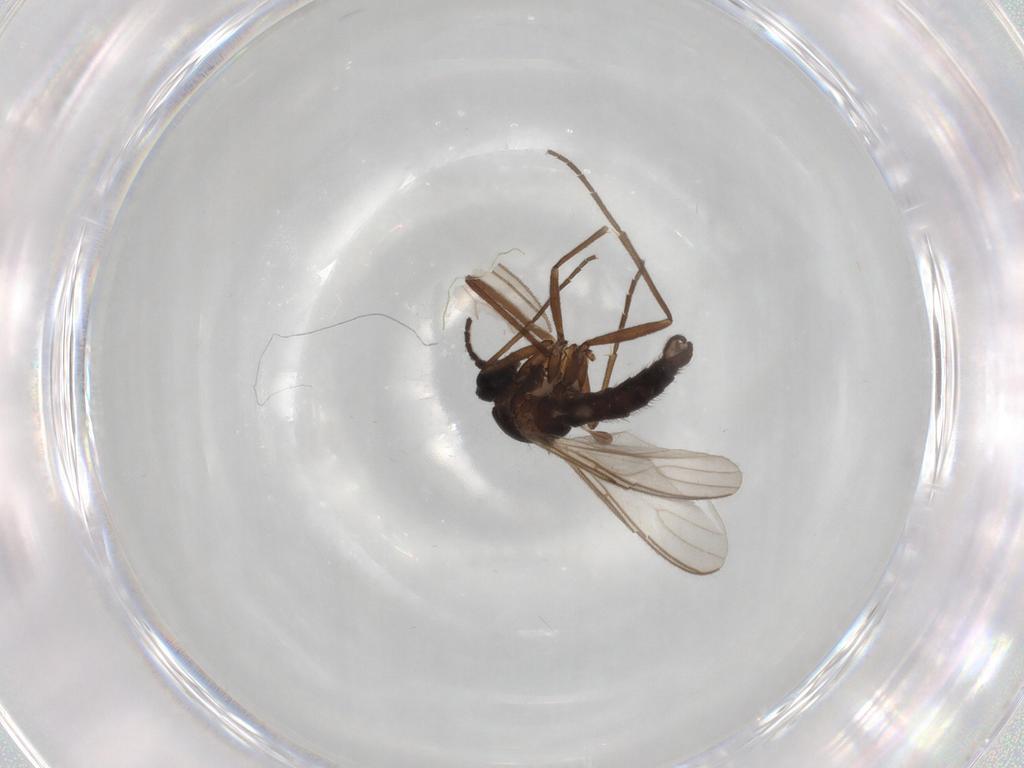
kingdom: Animalia
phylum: Arthropoda
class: Insecta
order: Diptera
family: Sciaridae
